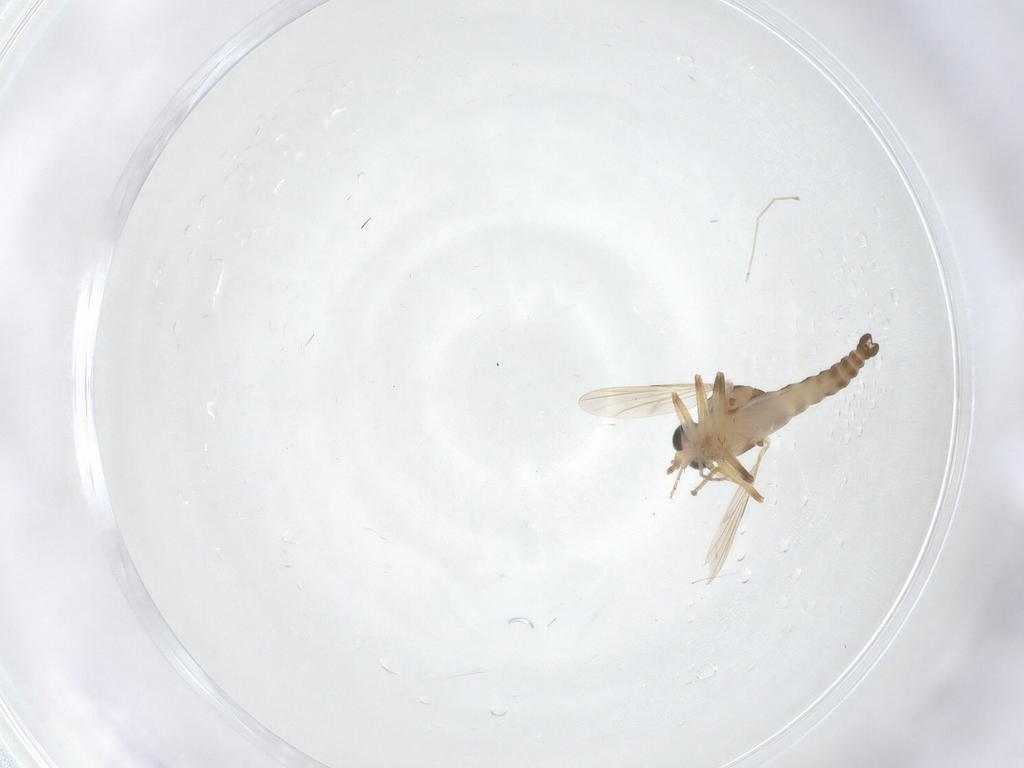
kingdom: Animalia
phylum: Arthropoda
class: Insecta
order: Diptera
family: Ceratopogonidae
